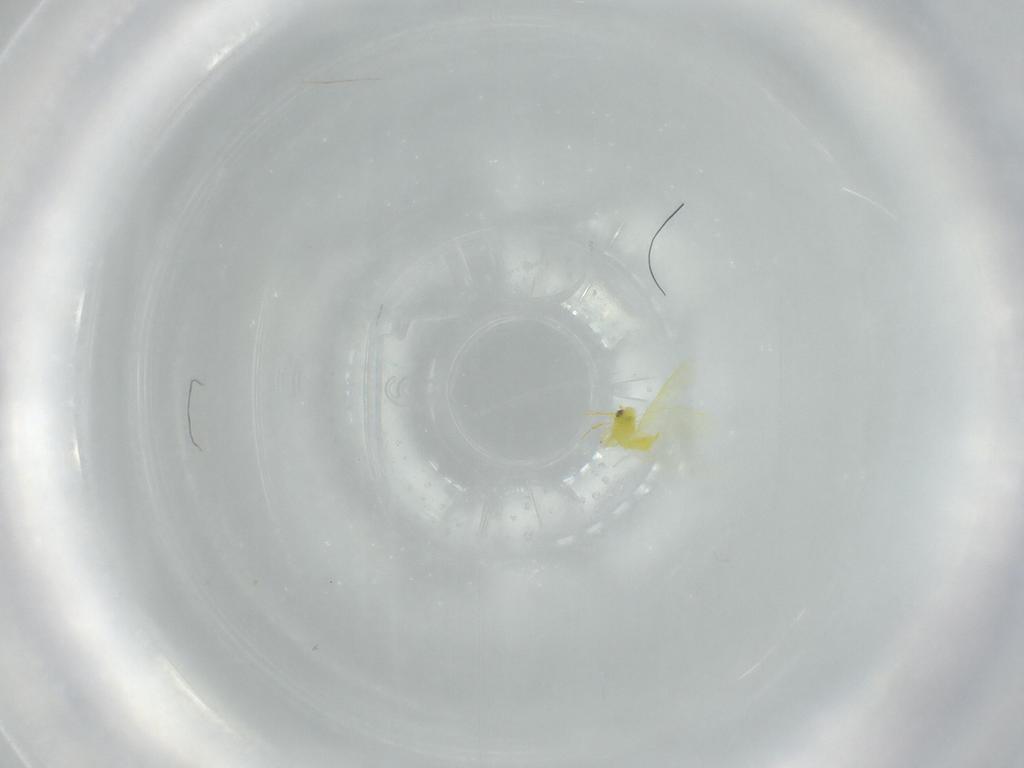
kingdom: Animalia
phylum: Arthropoda
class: Insecta
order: Hemiptera
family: Aleyrodidae
